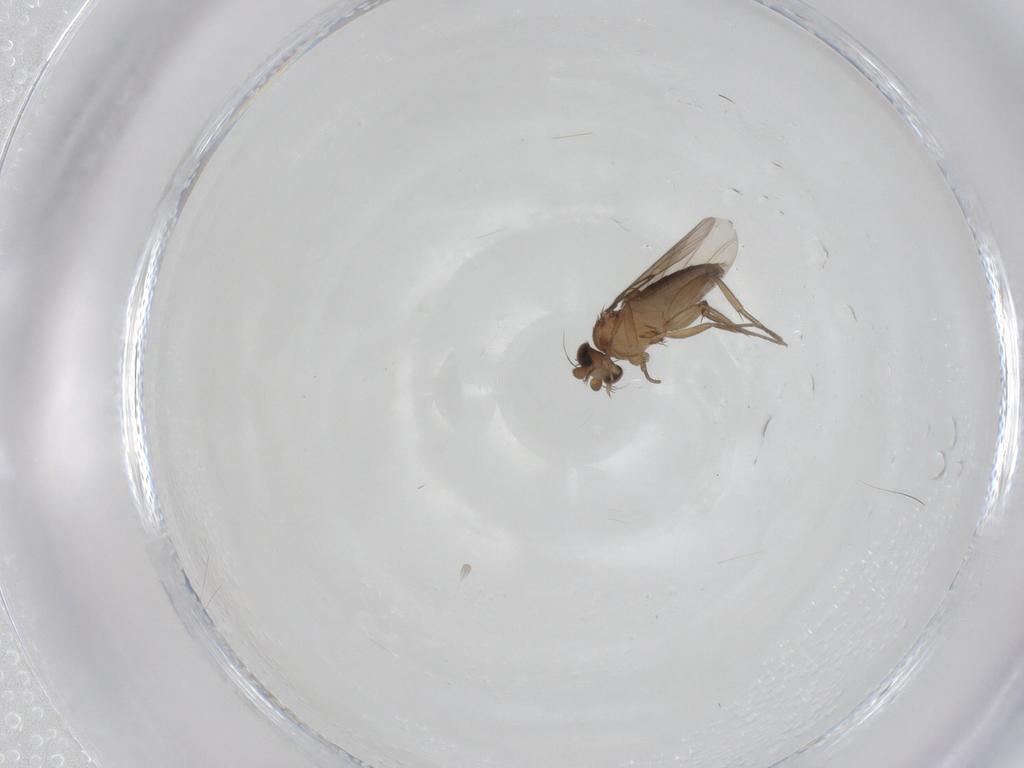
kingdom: Animalia
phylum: Arthropoda
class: Insecta
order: Diptera
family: Phoridae
